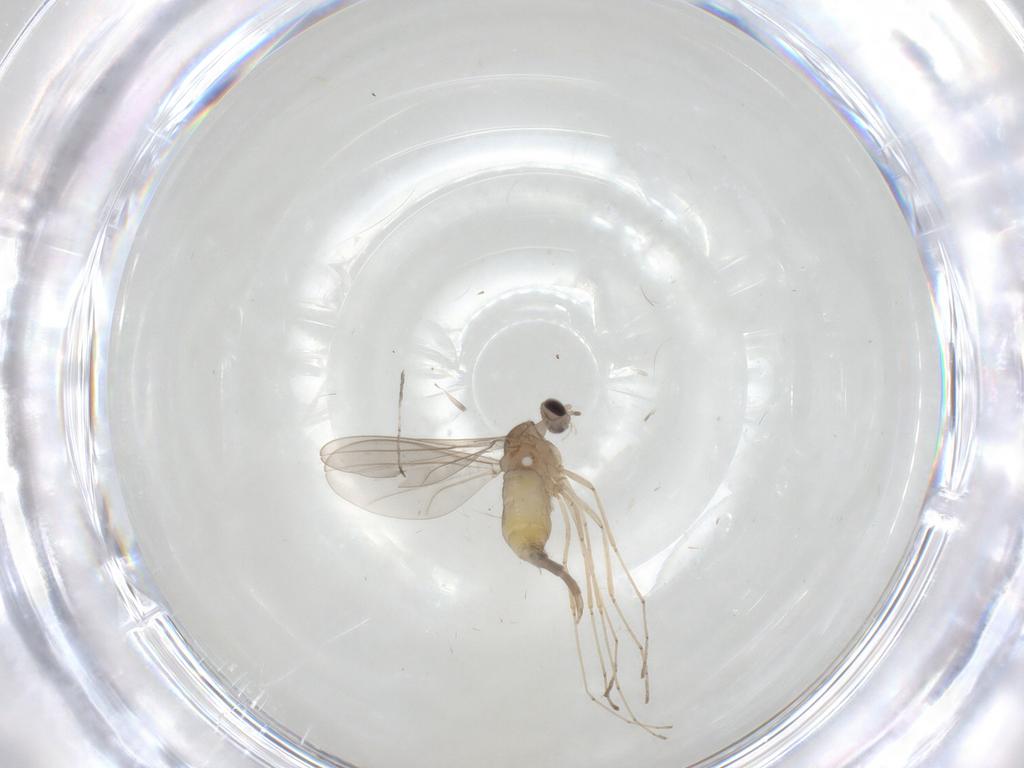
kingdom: Animalia
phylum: Arthropoda
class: Insecta
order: Diptera
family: Cecidomyiidae
